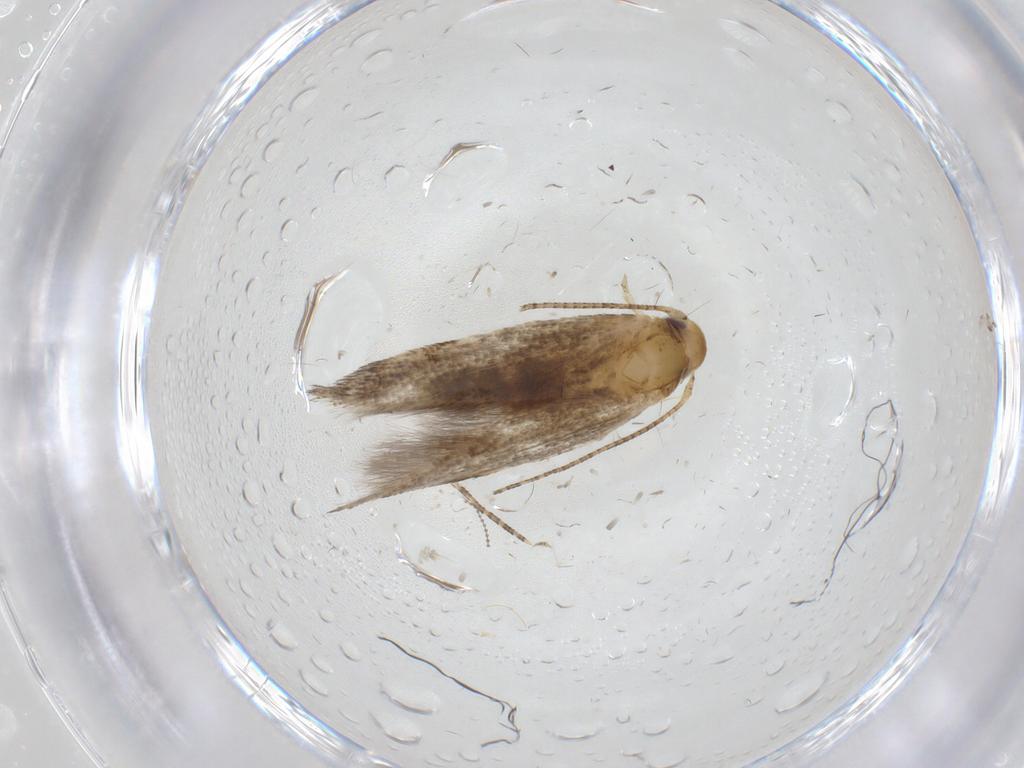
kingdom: Animalia
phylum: Arthropoda
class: Insecta
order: Lepidoptera
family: Momphidae
